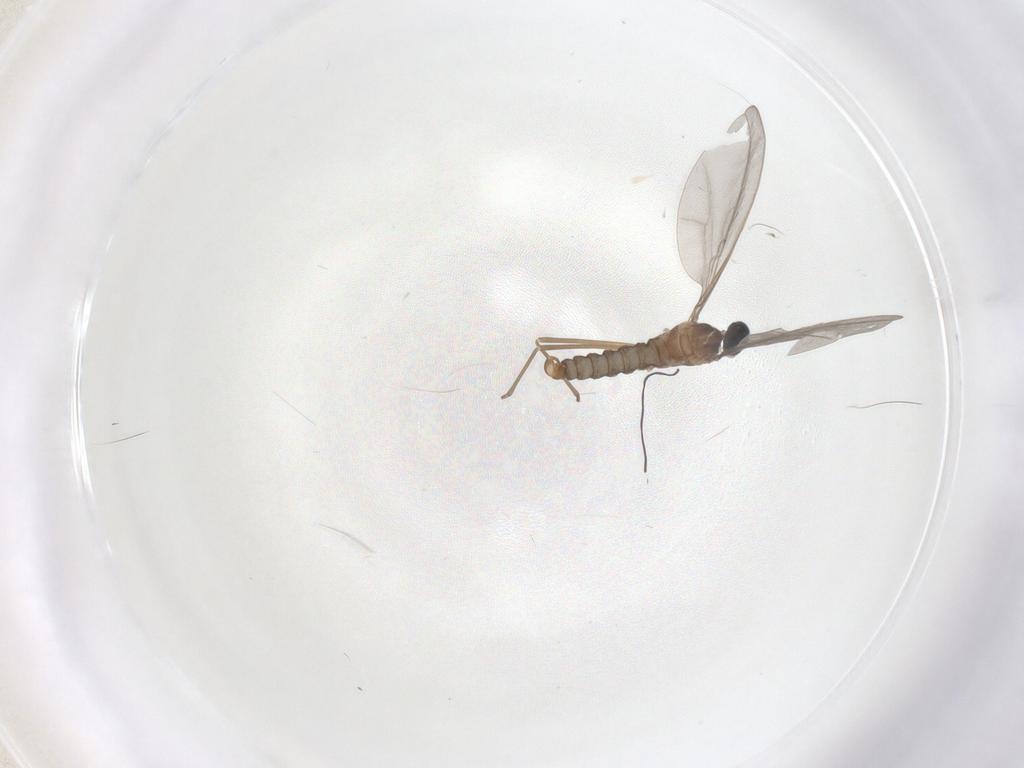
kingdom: Animalia
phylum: Arthropoda
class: Insecta
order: Diptera
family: Cecidomyiidae
